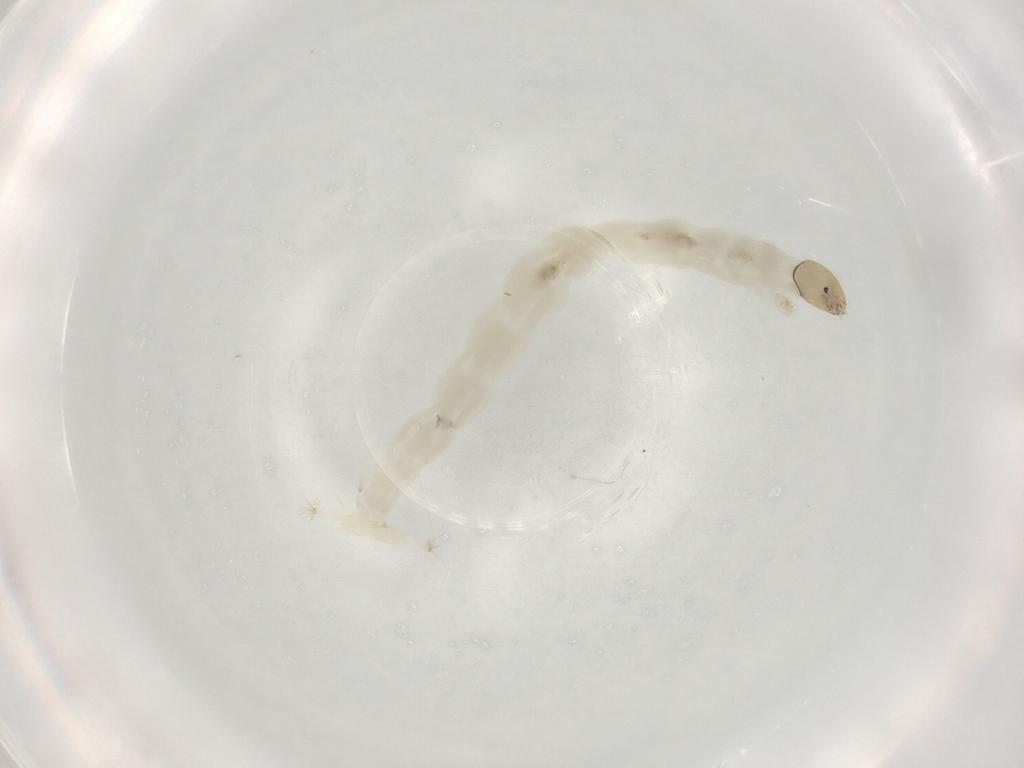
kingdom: Animalia
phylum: Arthropoda
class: Insecta
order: Diptera
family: Chironomidae
